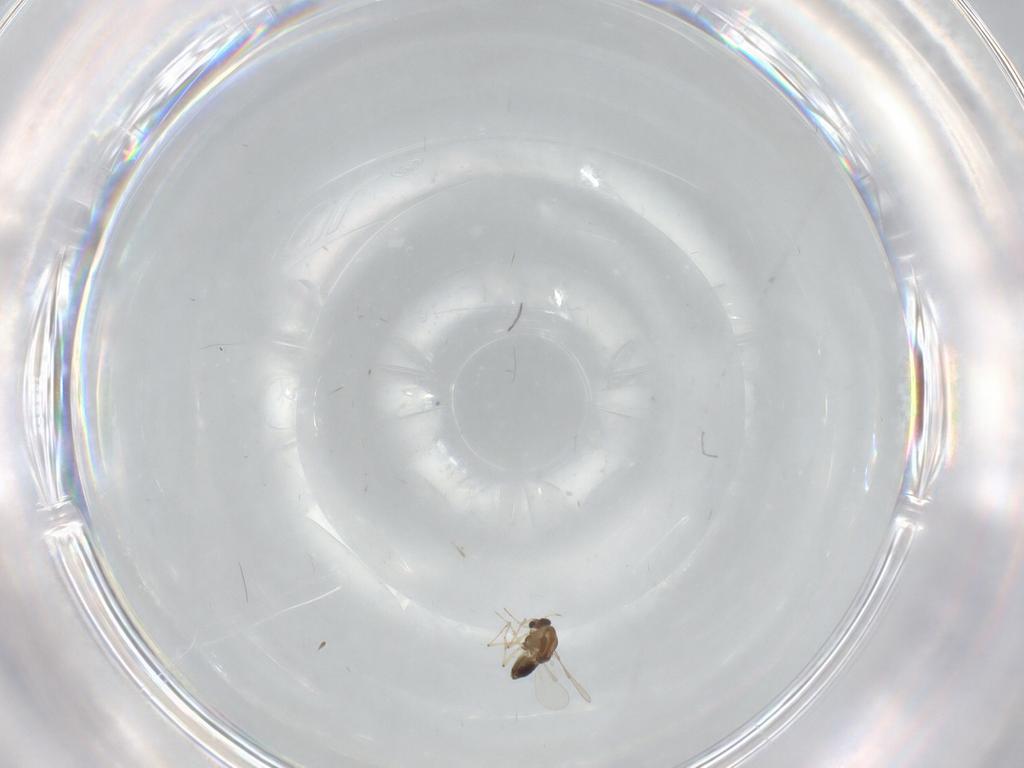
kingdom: Animalia
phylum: Arthropoda
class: Insecta
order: Diptera
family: Chironomidae
